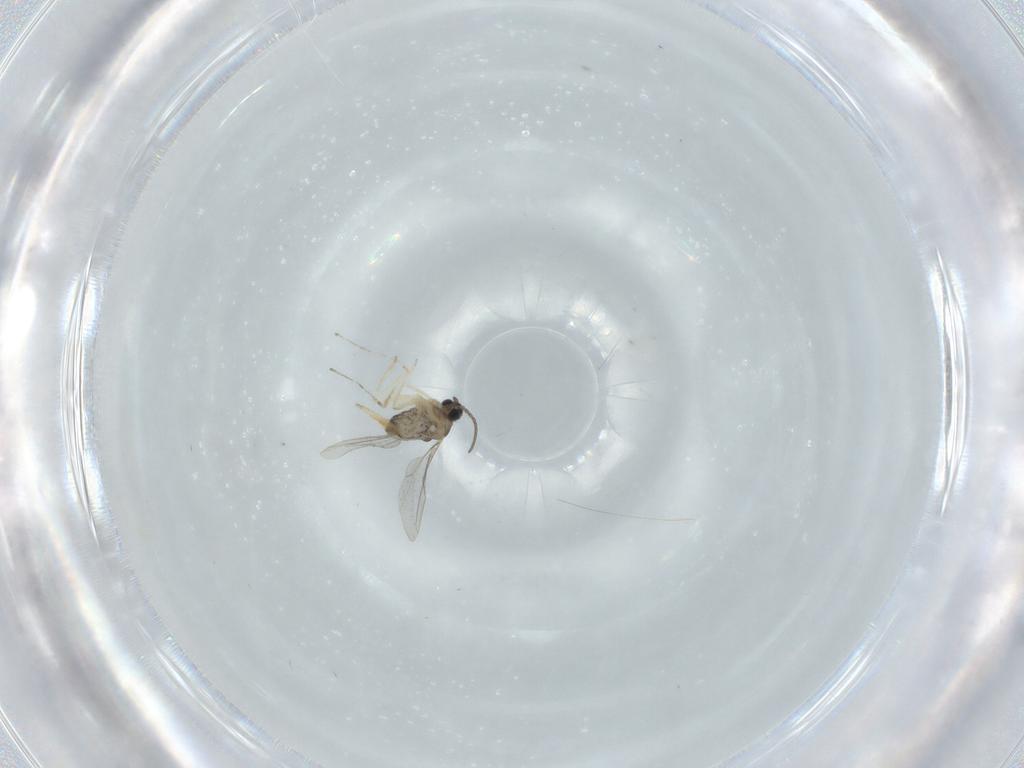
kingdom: Animalia
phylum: Arthropoda
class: Insecta
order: Diptera
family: Cecidomyiidae
